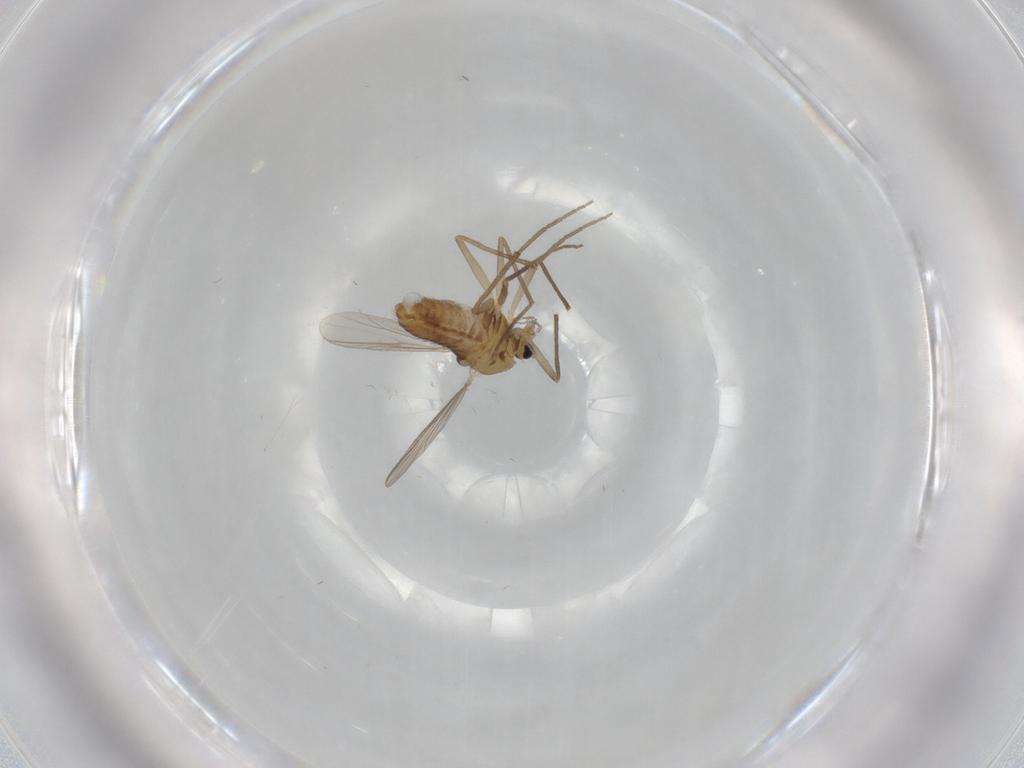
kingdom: Animalia
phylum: Arthropoda
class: Insecta
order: Diptera
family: Chironomidae
